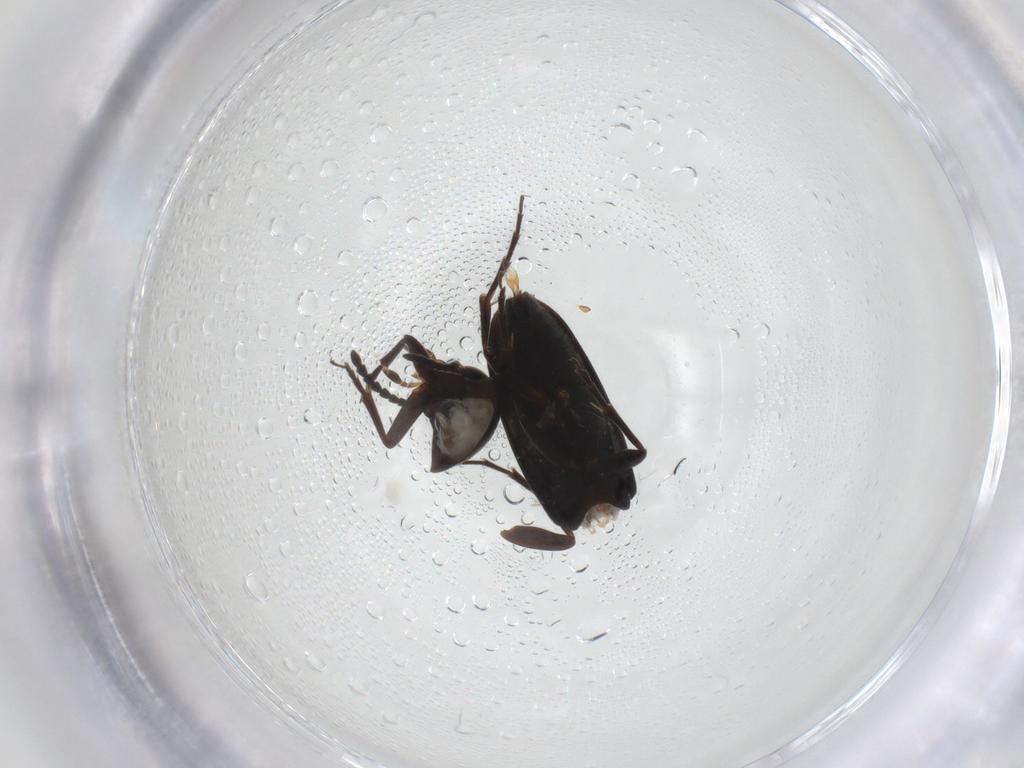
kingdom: Animalia
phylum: Arthropoda
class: Insecta
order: Coleoptera
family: Scraptiidae
